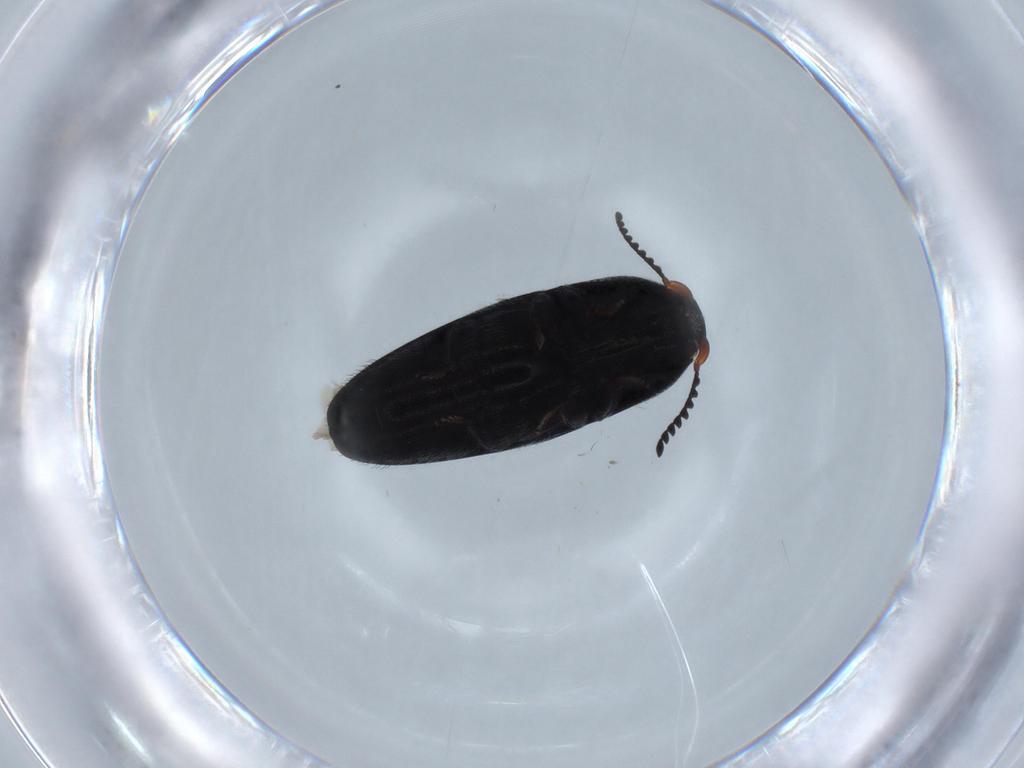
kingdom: Animalia
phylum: Arthropoda
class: Insecta
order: Coleoptera
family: Elateridae
